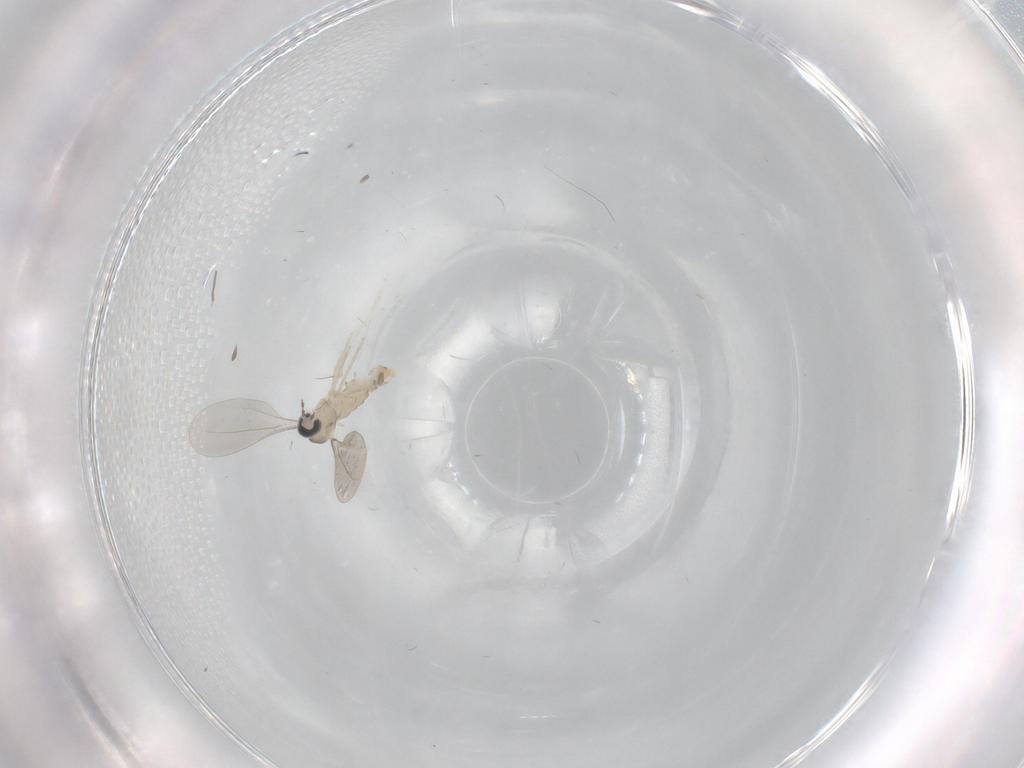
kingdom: Animalia
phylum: Arthropoda
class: Insecta
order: Diptera
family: Cecidomyiidae
